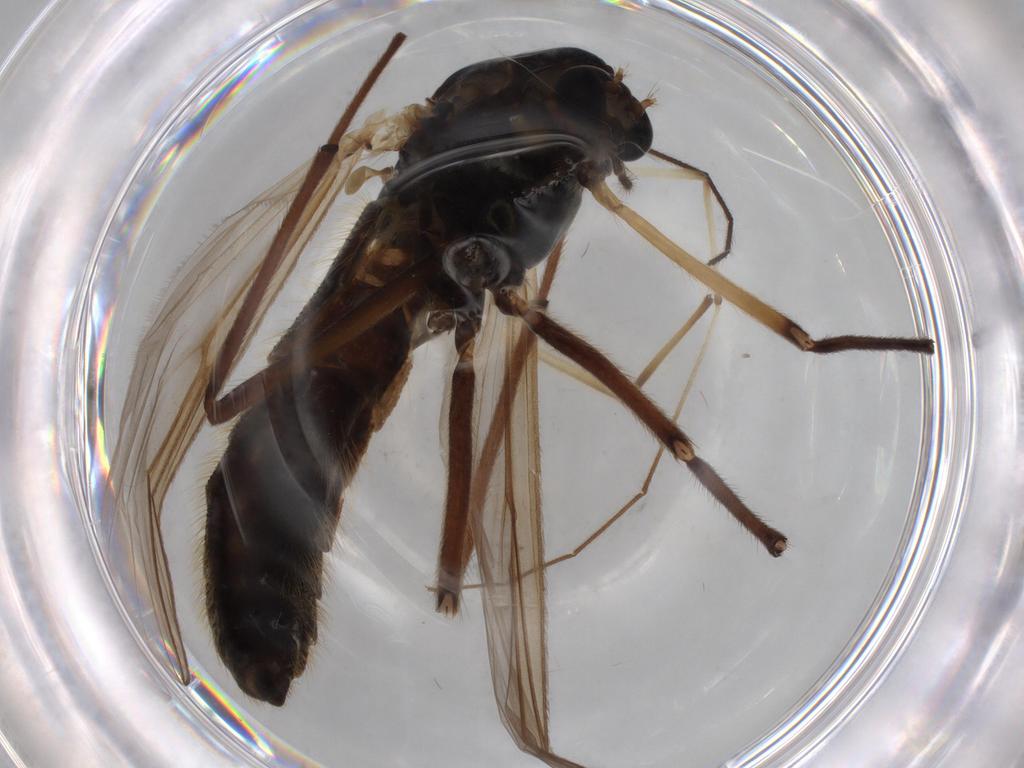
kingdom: Animalia
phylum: Arthropoda
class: Insecta
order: Diptera
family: Chironomidae
